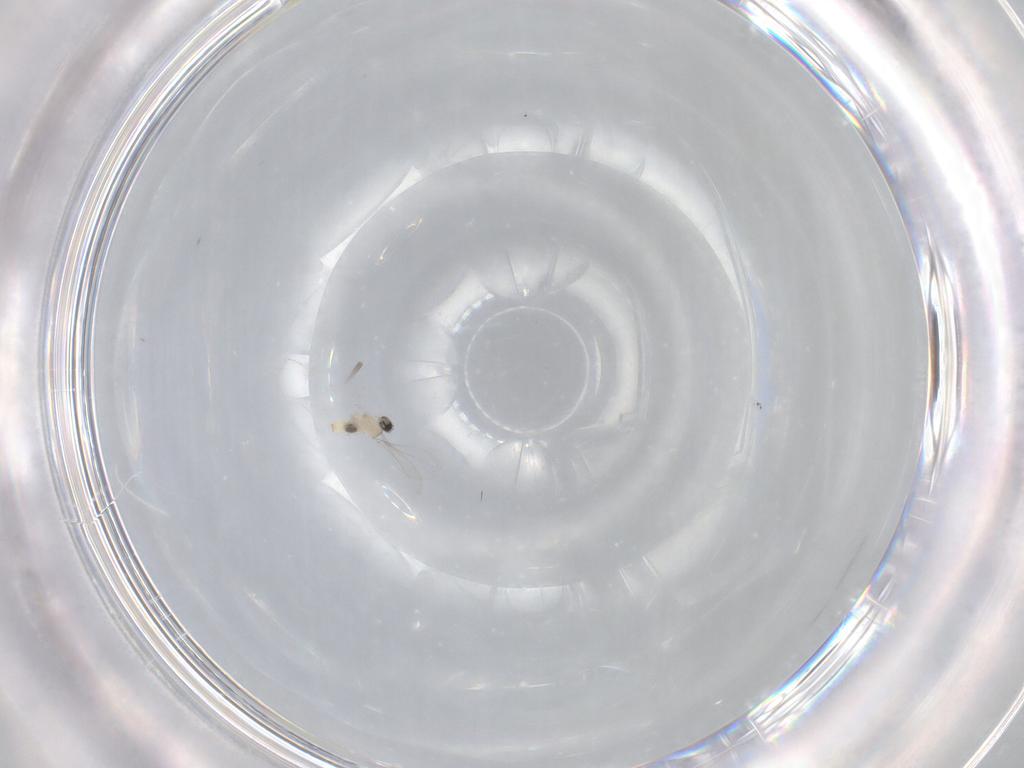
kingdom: Animalia
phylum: Arthropoda
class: Insecta
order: Diptera
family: Cecidomyiidae
